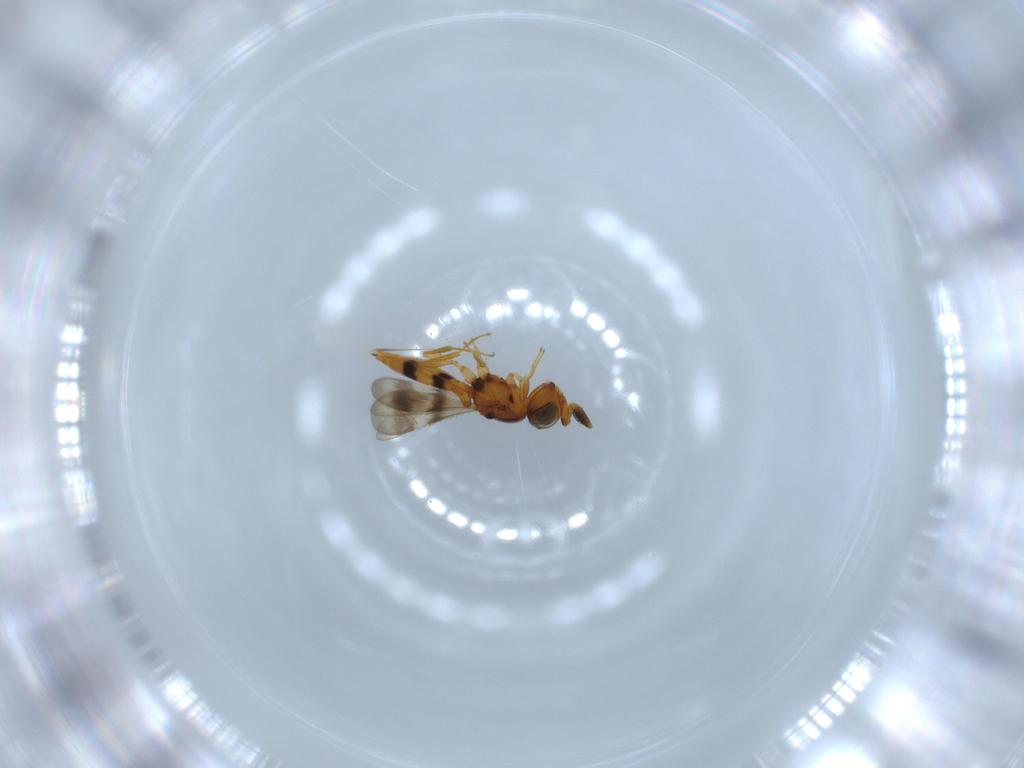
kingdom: Animalia
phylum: Arthropoda
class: Insecta
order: Hymenoptera
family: Scelionidae
